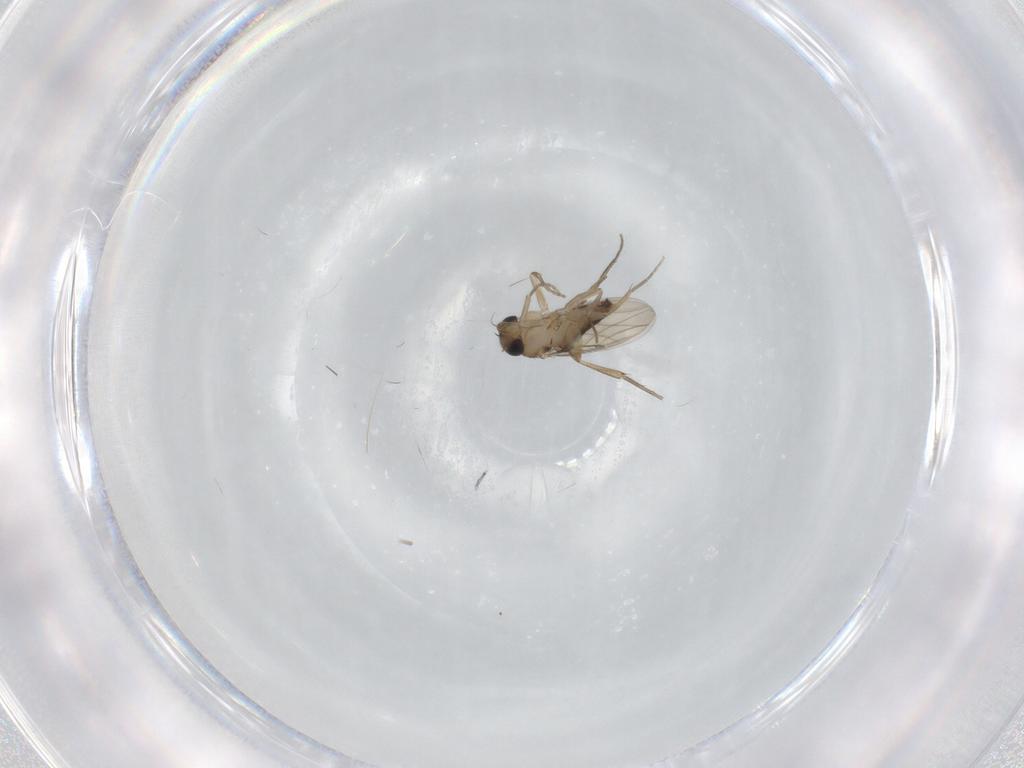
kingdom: Animalia
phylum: Arthropoda
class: Insecta
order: Diptera
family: Phoridae
